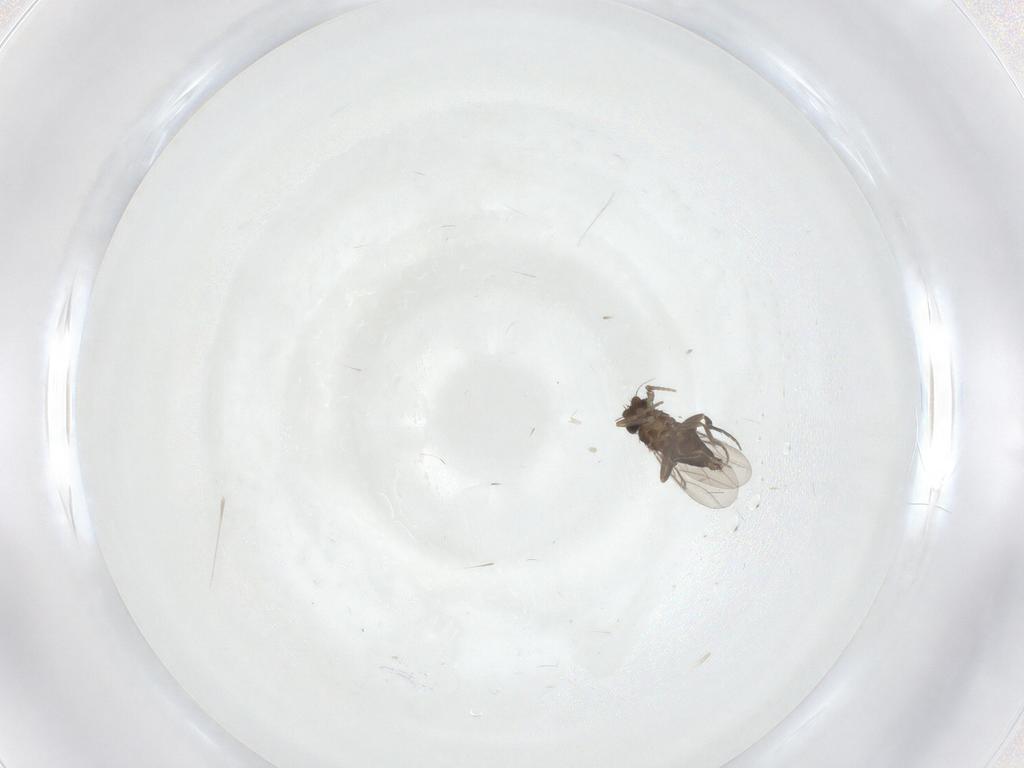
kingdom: Animalia
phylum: Arthropoda
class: Insecta
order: Diptera
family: Phoridae
